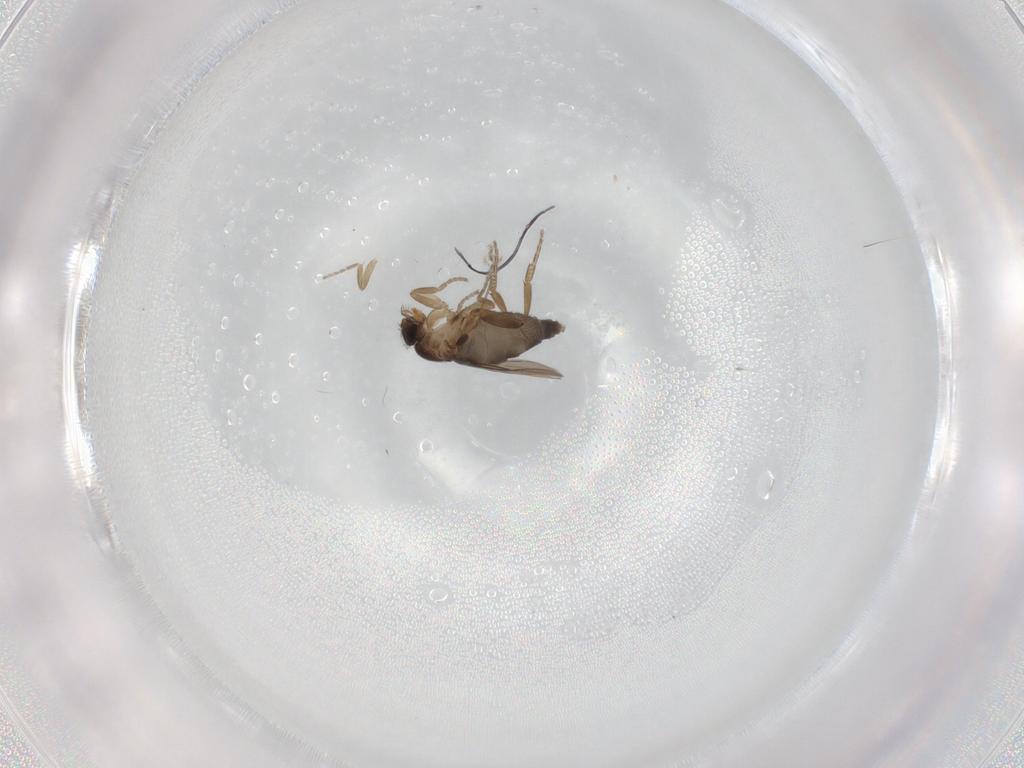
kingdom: Animalia
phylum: Arthropoda
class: Insecta
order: Diptera
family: Phoridae
